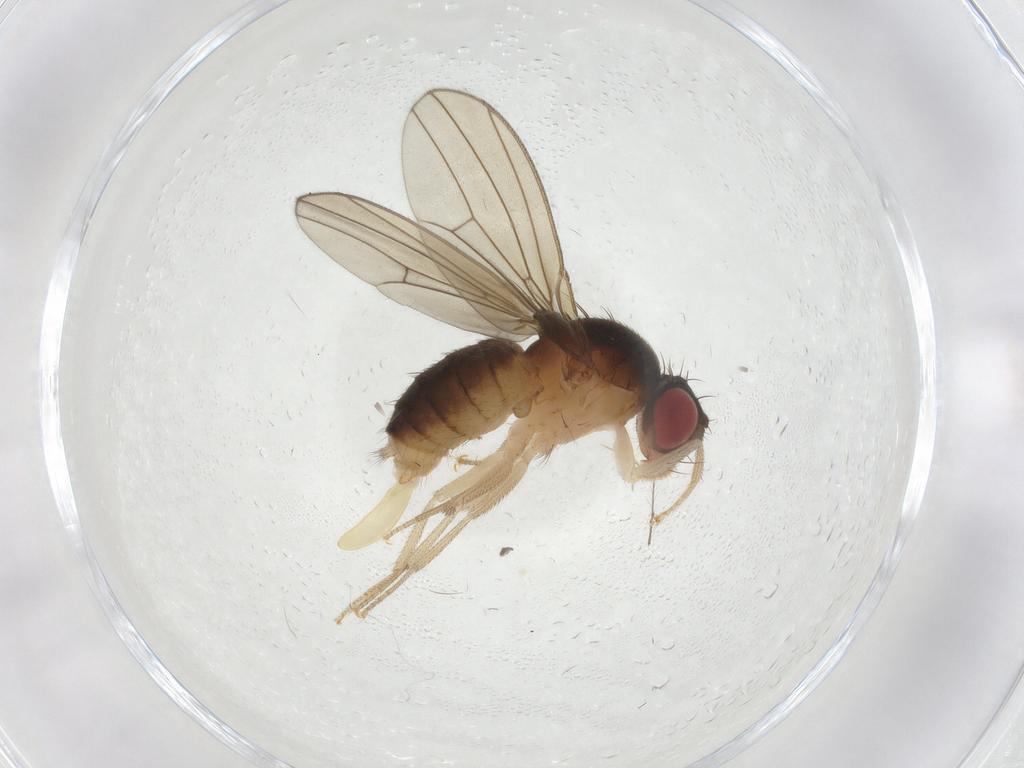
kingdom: Animalia
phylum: Arthropoda
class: Insecta
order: Diptera
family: Drosophilidae
